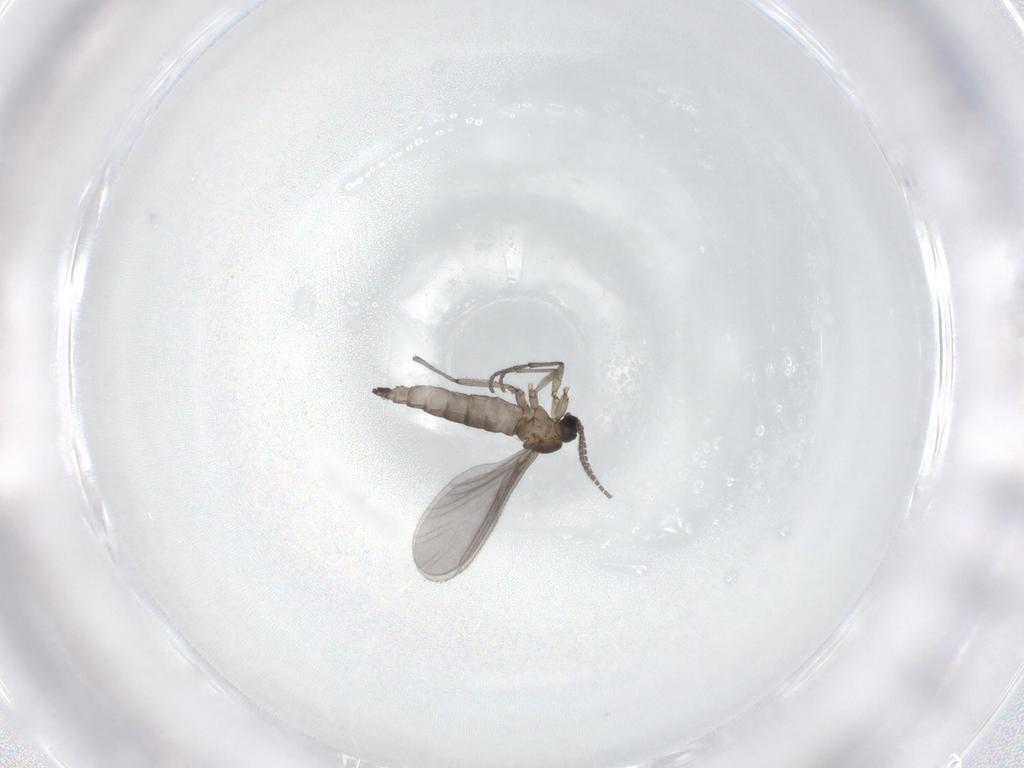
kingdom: Animalia
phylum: Arthropoda
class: Insecta
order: Diptera
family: Sciaridae
